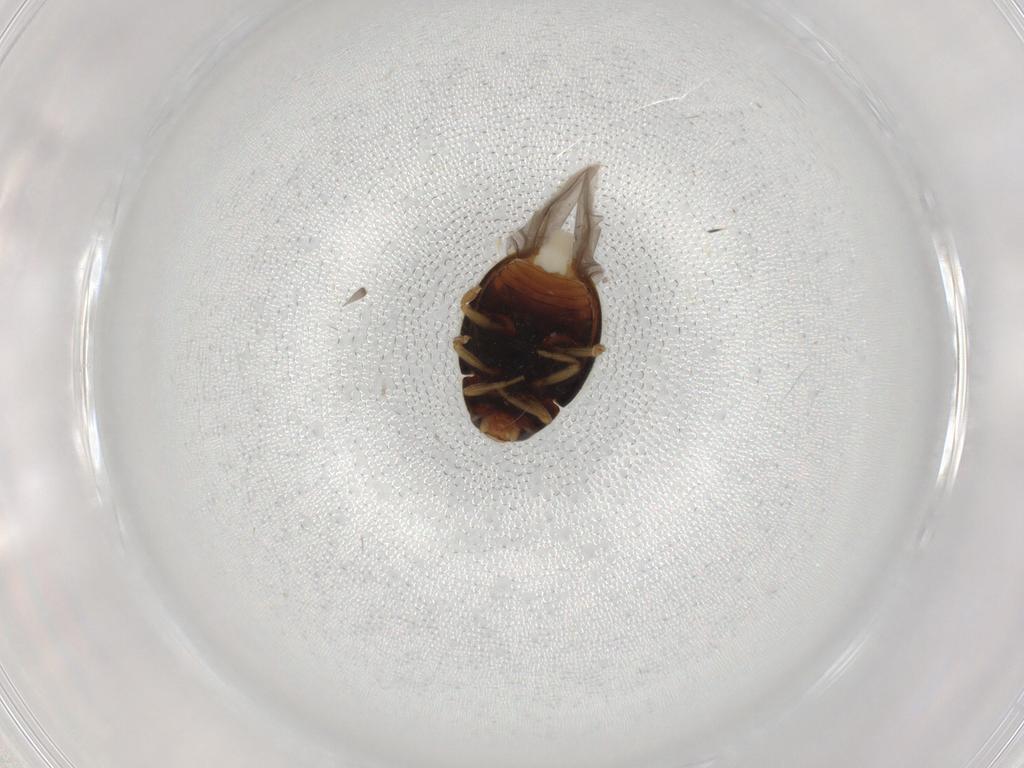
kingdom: Animalia
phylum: Arthropoda
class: Insecta
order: Coleoptera
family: Coccinellidae
